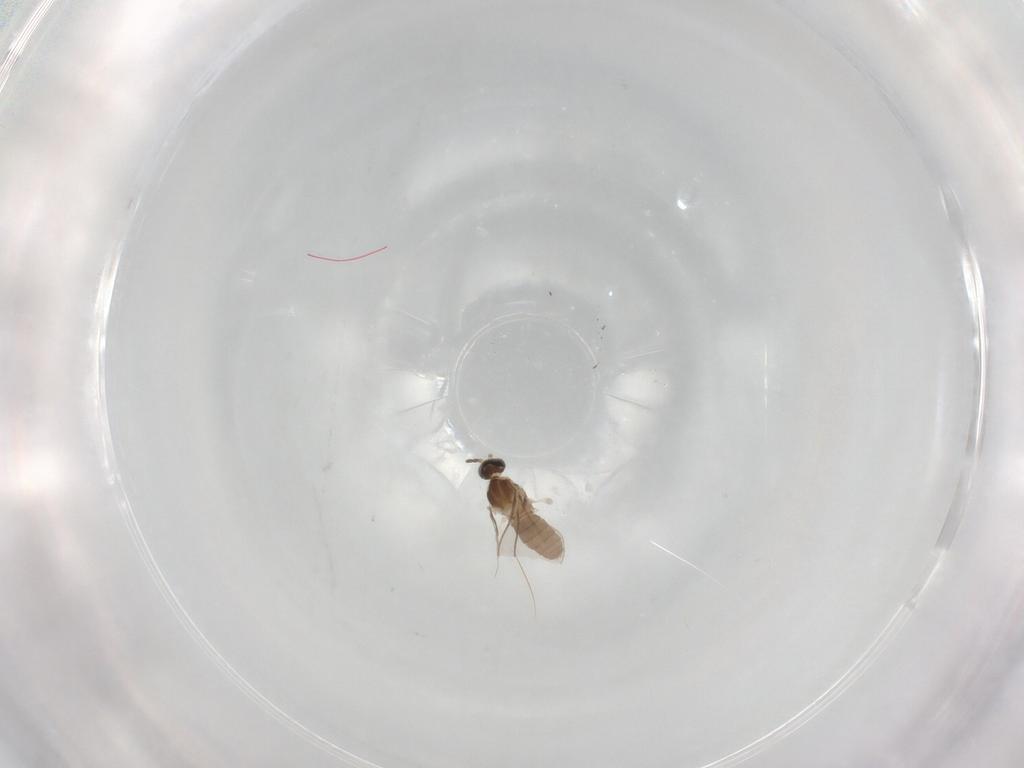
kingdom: Animalia
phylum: Arthropoda
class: Insecta
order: Diptera
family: Cecidomyiidae
